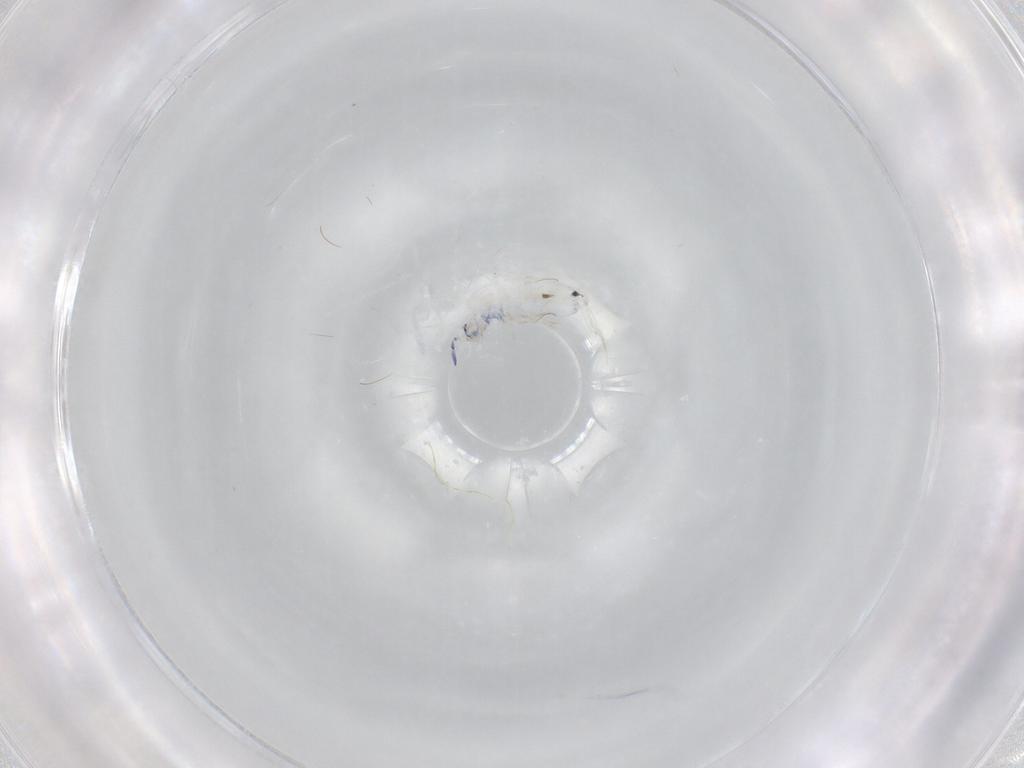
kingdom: Animalia
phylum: Arthropoda
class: Collembola
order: Entomobryomorpha
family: Entomobryidae
